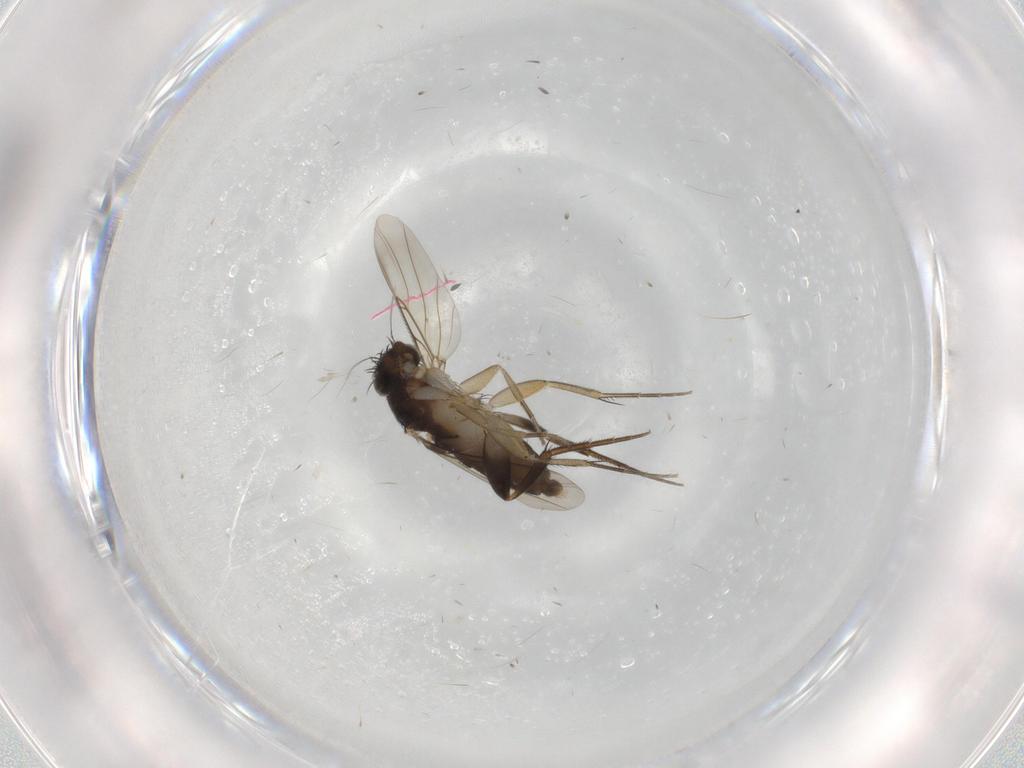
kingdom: Animalia
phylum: Arthropoda
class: Insecta
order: Diptera
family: Phoridae
